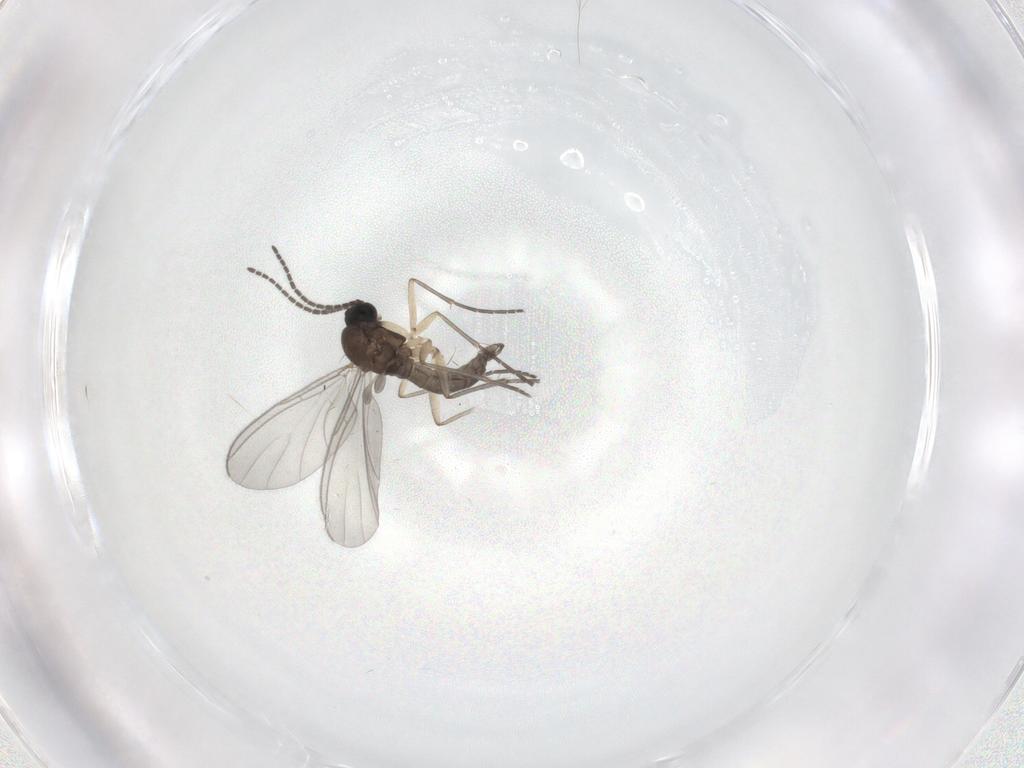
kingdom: Animalia
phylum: Arthropoda
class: Insecta
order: Diptera
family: Sciaridae
